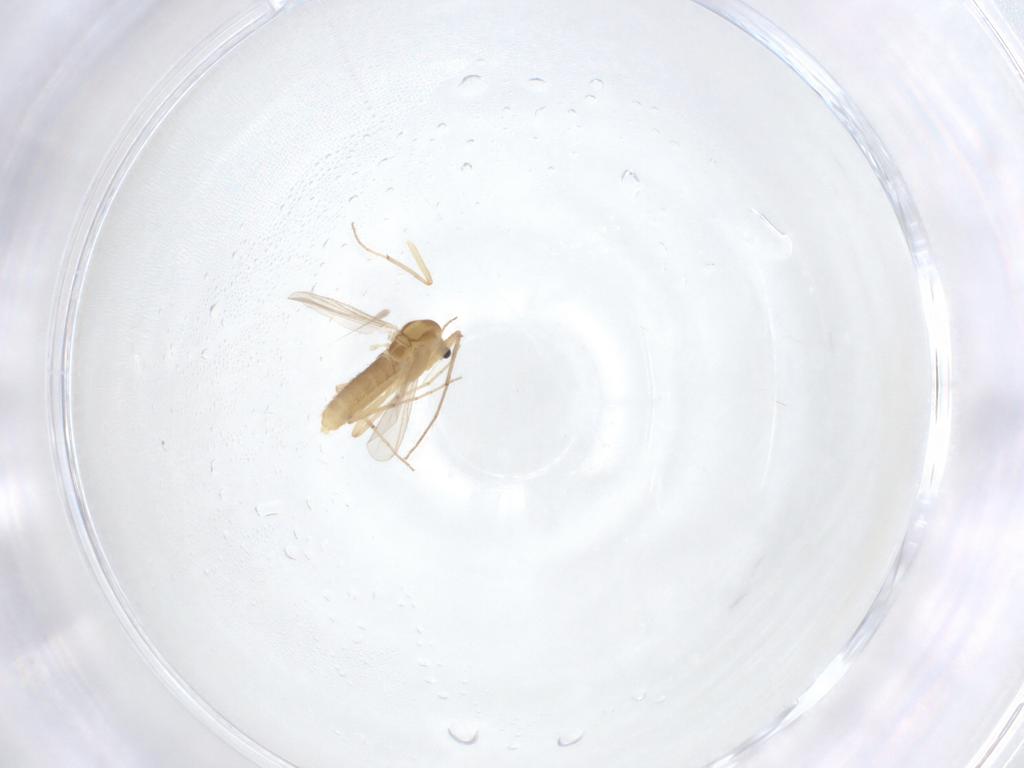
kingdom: Animalia
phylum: Arthropoda
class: Insecta
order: Diptera
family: Chironomidae
